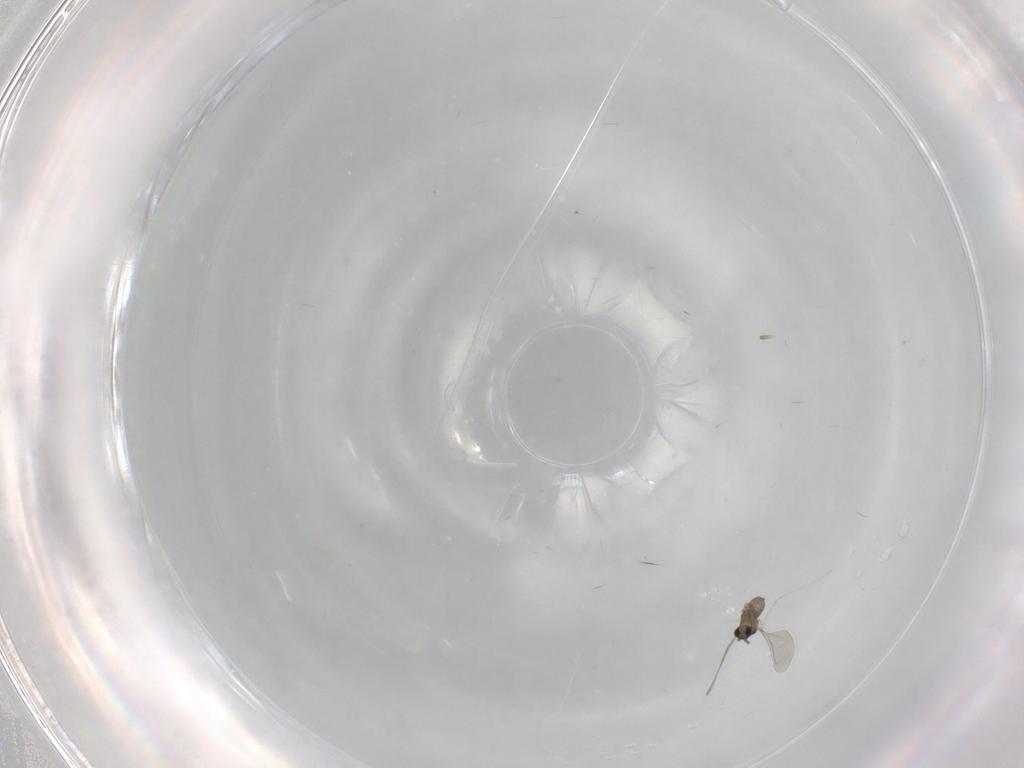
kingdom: Animalia
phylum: Arthropoda
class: Insecta
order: Diptera
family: Cecidomyiidae
